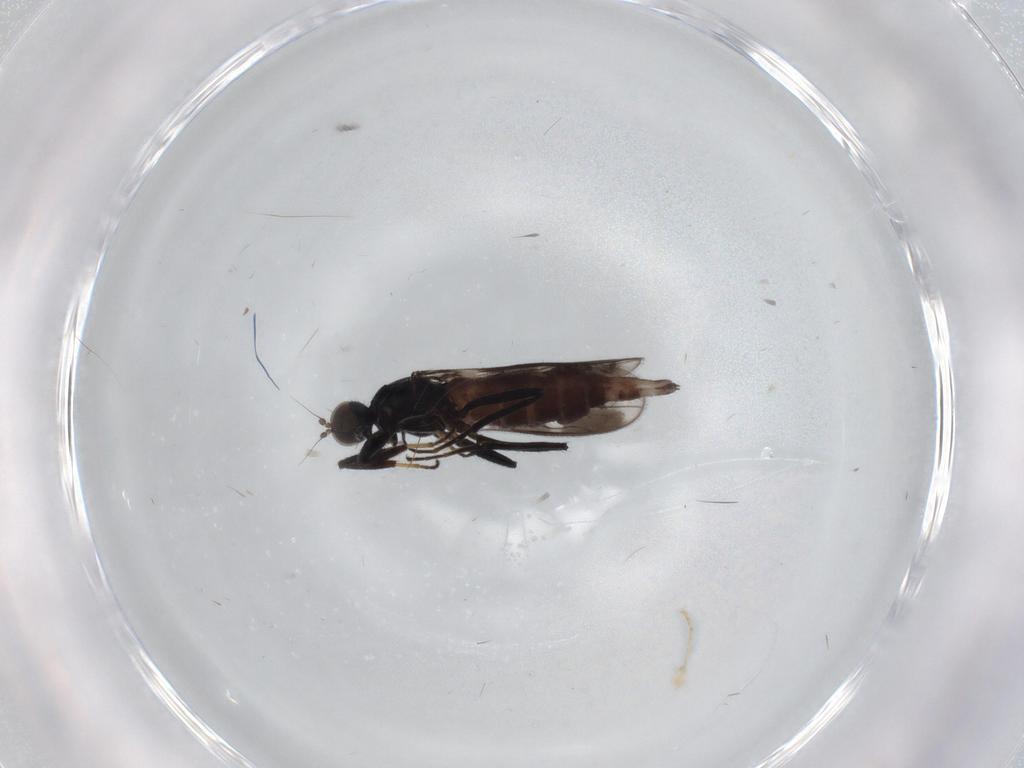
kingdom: Animalia
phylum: Arthropoda
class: Insecta
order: Diptera
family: Hybotidae
